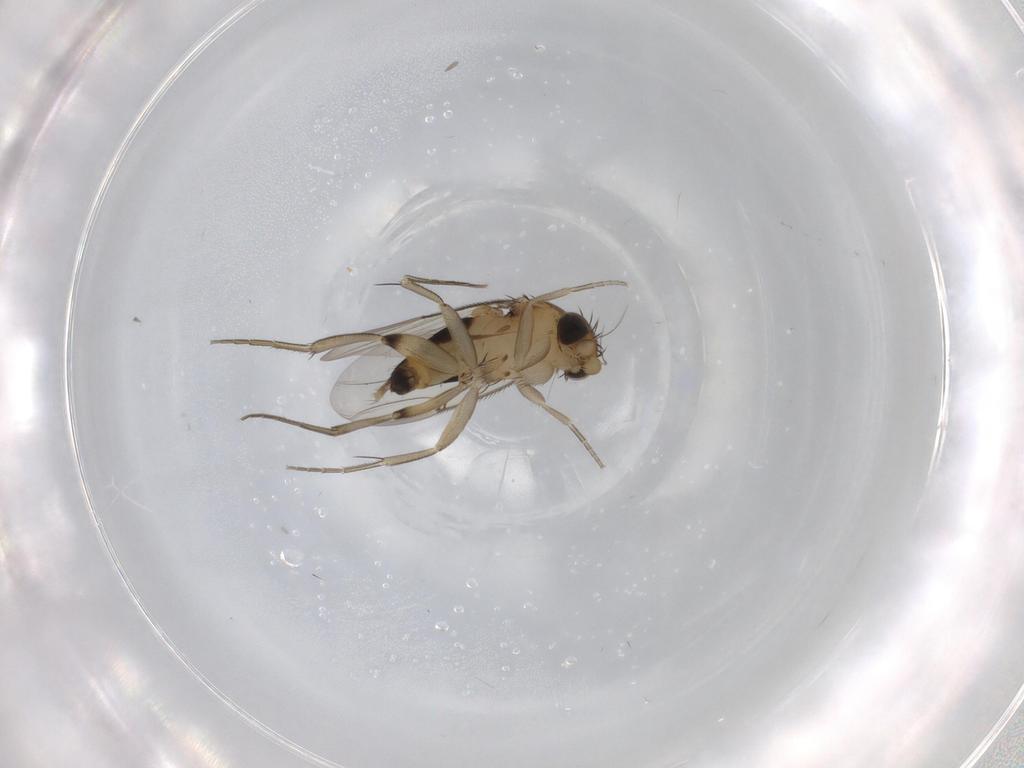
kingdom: Animalia
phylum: Arthropoda
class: Insecta
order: Diptera
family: Phoridae
